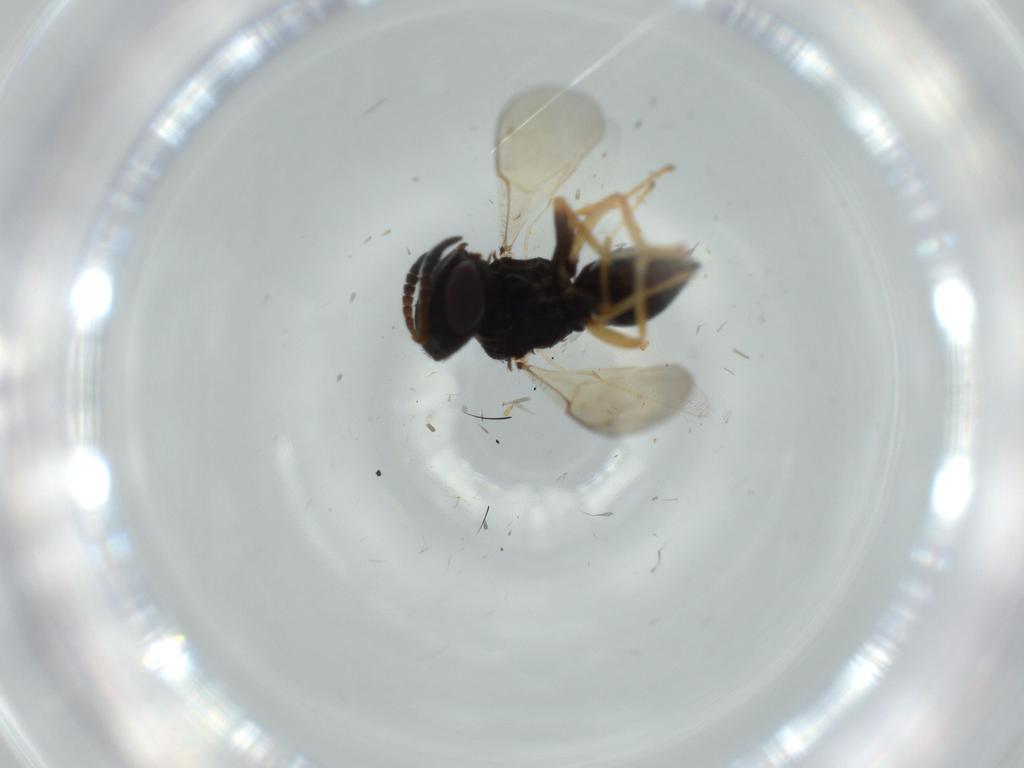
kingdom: Animalia
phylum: Arthropoda
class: Insecta
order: Hymenoptera
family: Pteromalidae
